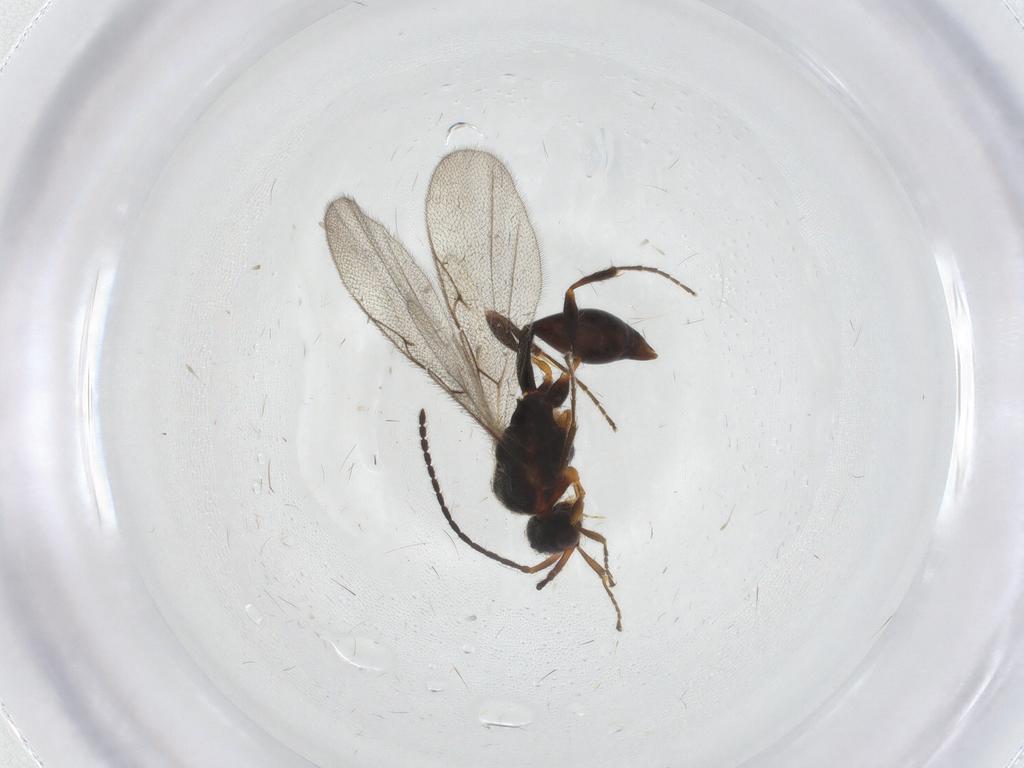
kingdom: Animalia
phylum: Arthropoda
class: Insecta
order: Hymenoptera
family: Diapriidae
